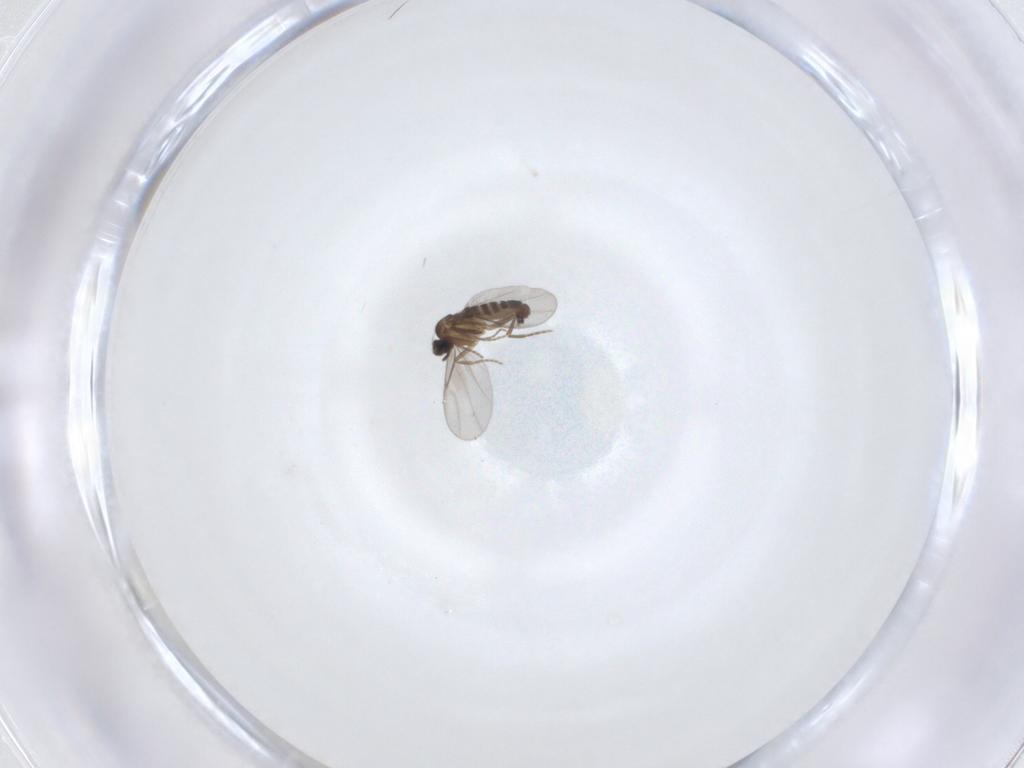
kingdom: Animalia
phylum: Arthropoda
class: Insecta
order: Diptera
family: Phoridae
